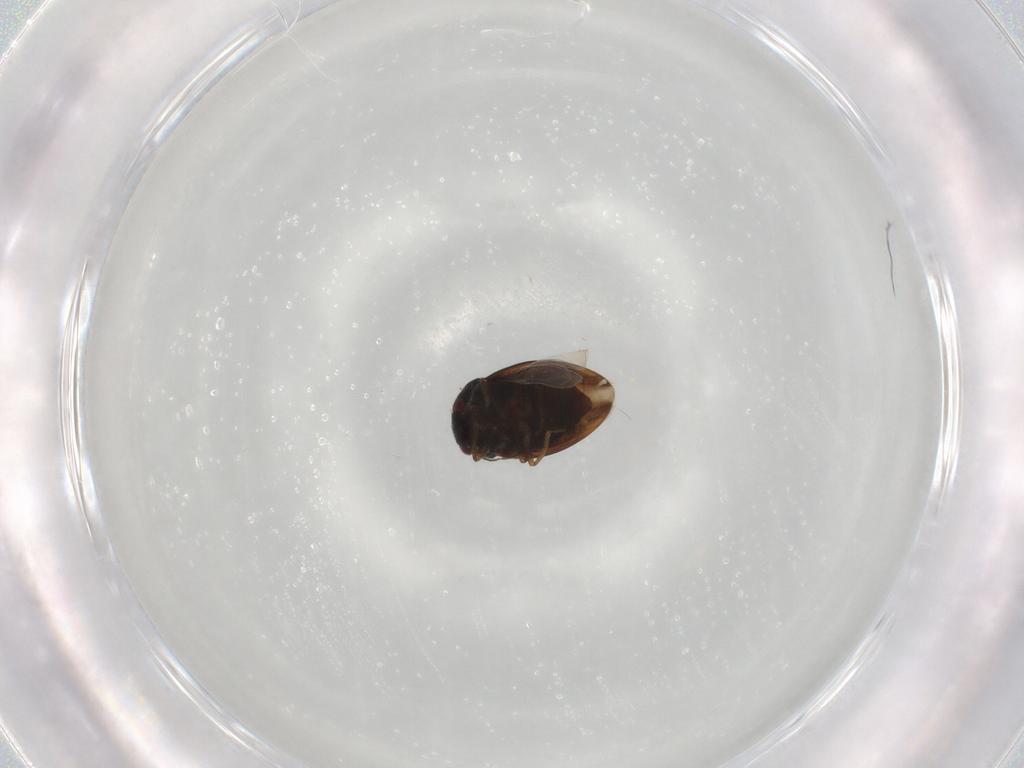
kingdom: Animalia
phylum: Arthropoda
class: Insecta
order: Hemiptera
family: Schizopteridae
